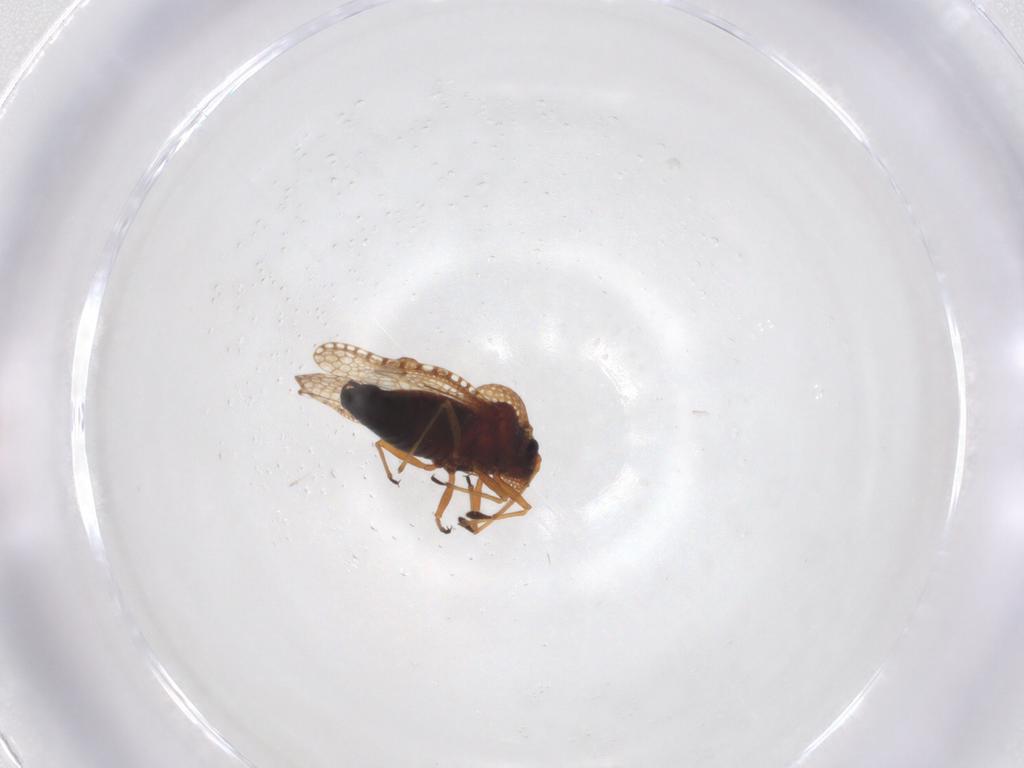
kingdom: Animalia
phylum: Arthropoda
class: Insecta
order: Hemiptera
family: Tingidae
